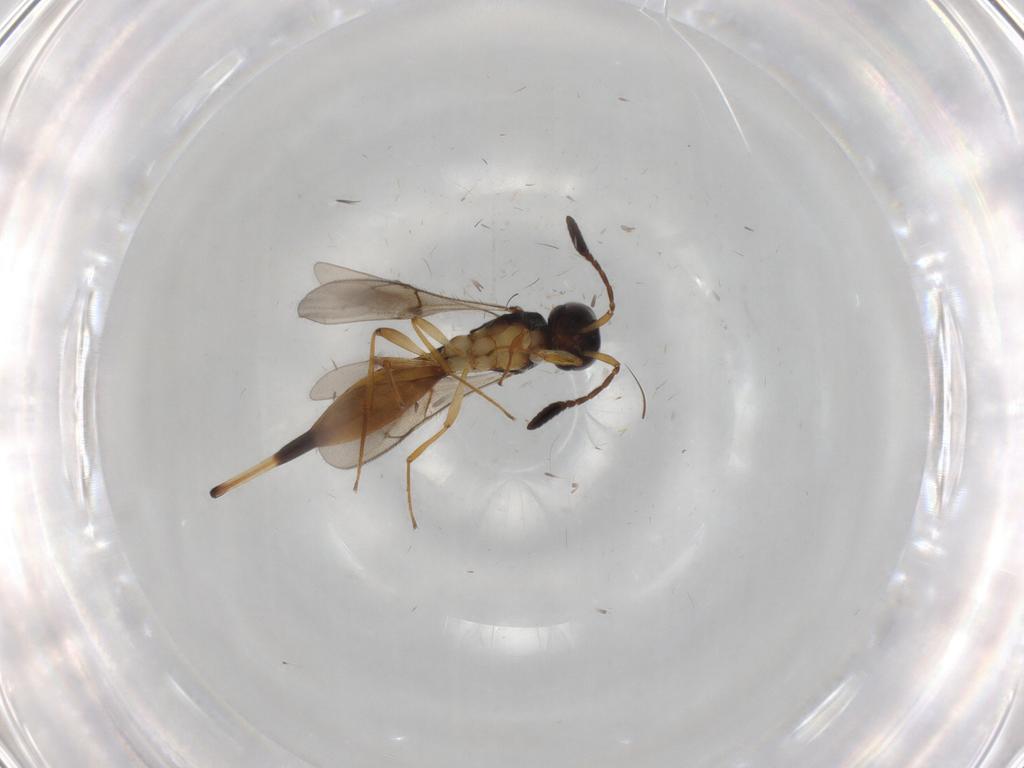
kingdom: Animalia
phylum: Arthropoda
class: Insecta
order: Hymenoptera
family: Scelionidae
